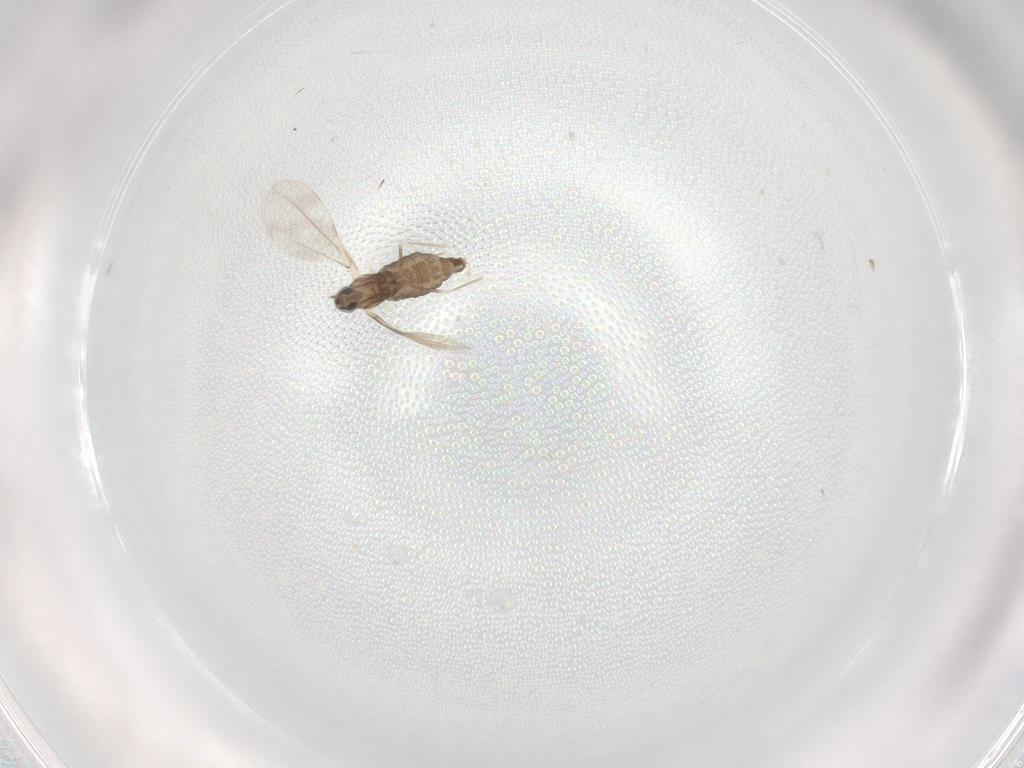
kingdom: Animalia
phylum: Arthropoda
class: Insecta
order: Diptera
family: Cecidomyiidae
